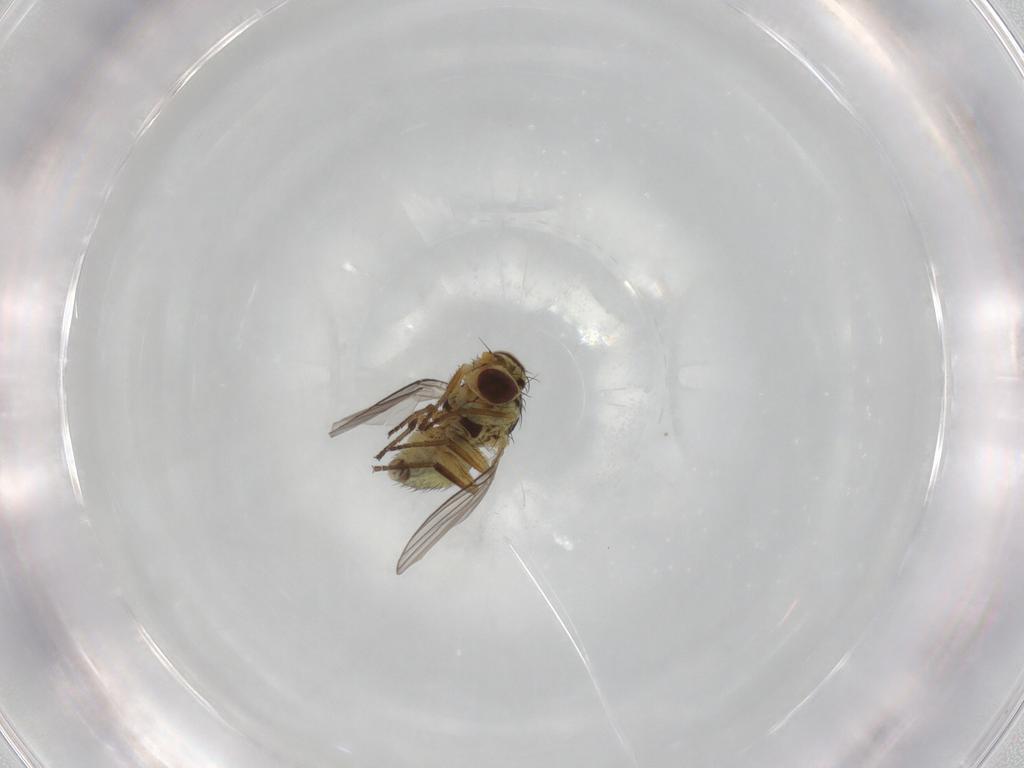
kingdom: Animalia
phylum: Arthropoda
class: Insecta
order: Diptera
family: Agromyzidae
